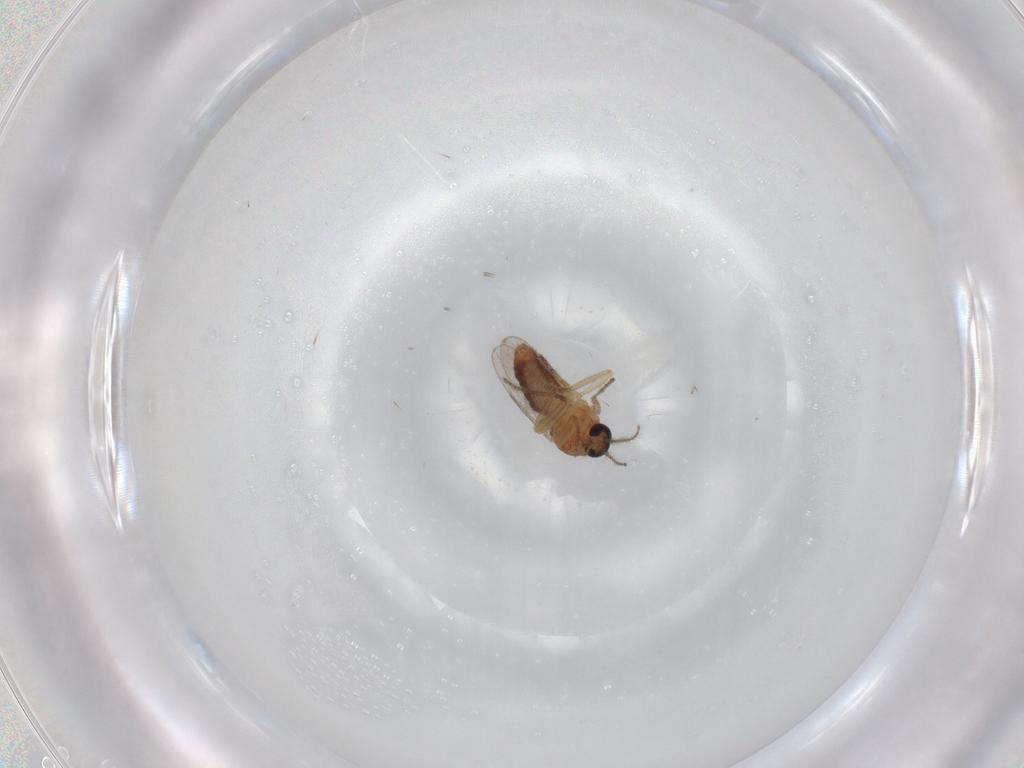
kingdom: Animalia
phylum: Arthropoda
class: Insecta
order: Diptera
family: Ceratopogonidae
